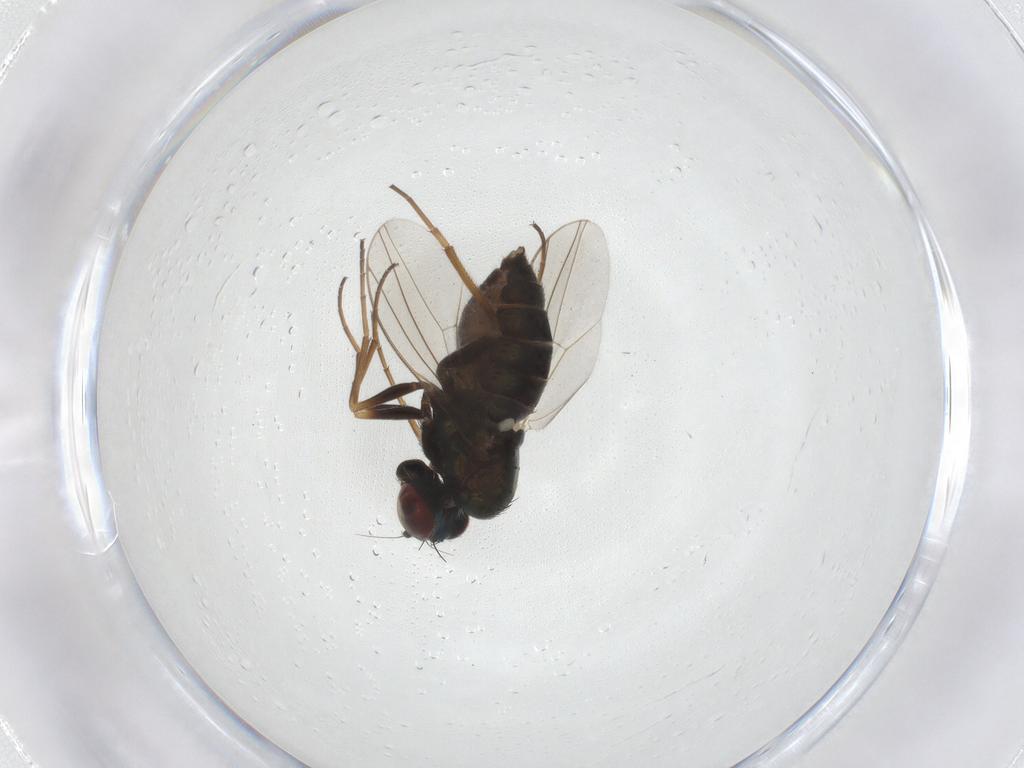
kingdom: Animalia
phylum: Arthropoda
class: Insecta
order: Diptera
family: Dolichopodidae
